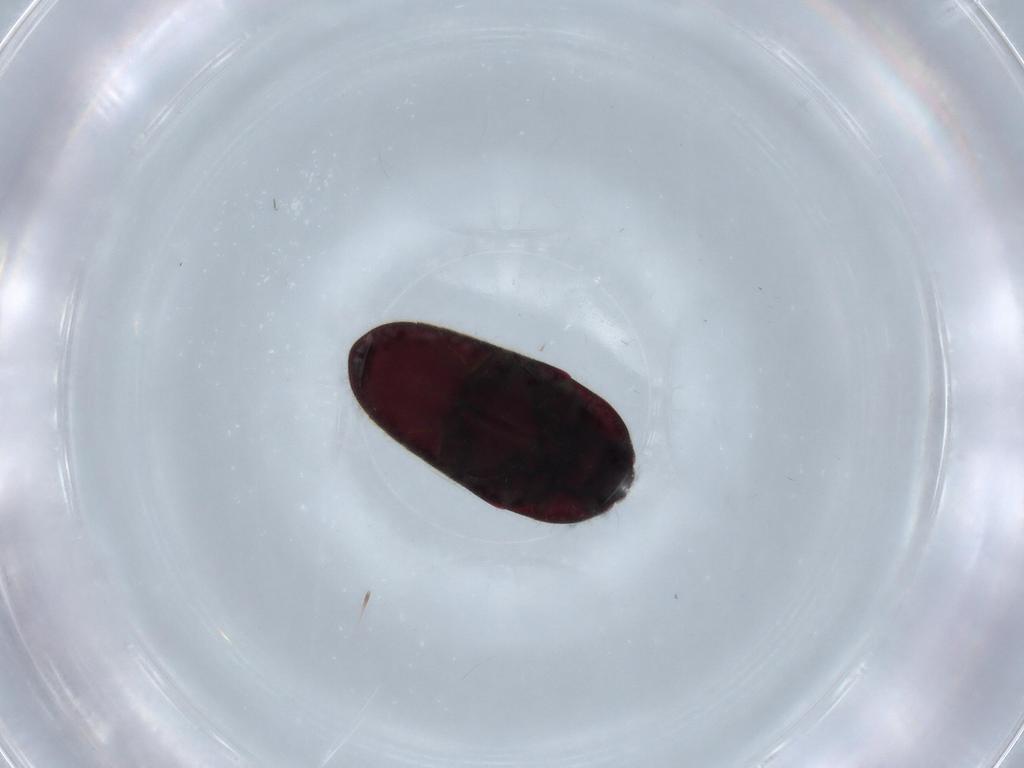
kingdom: Animalia
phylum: Arthropoda
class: Insecta
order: Coleoptera
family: Throscidae
